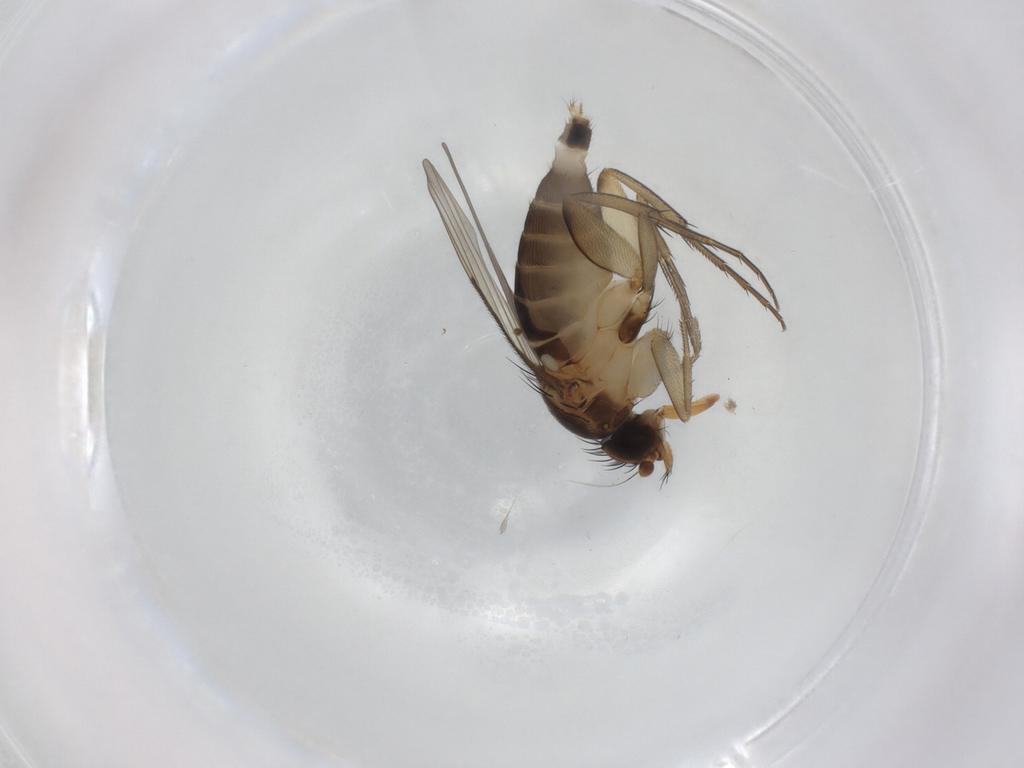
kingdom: Animalia
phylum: Arthropoda
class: Insecta
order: Diptera
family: Phoridae
